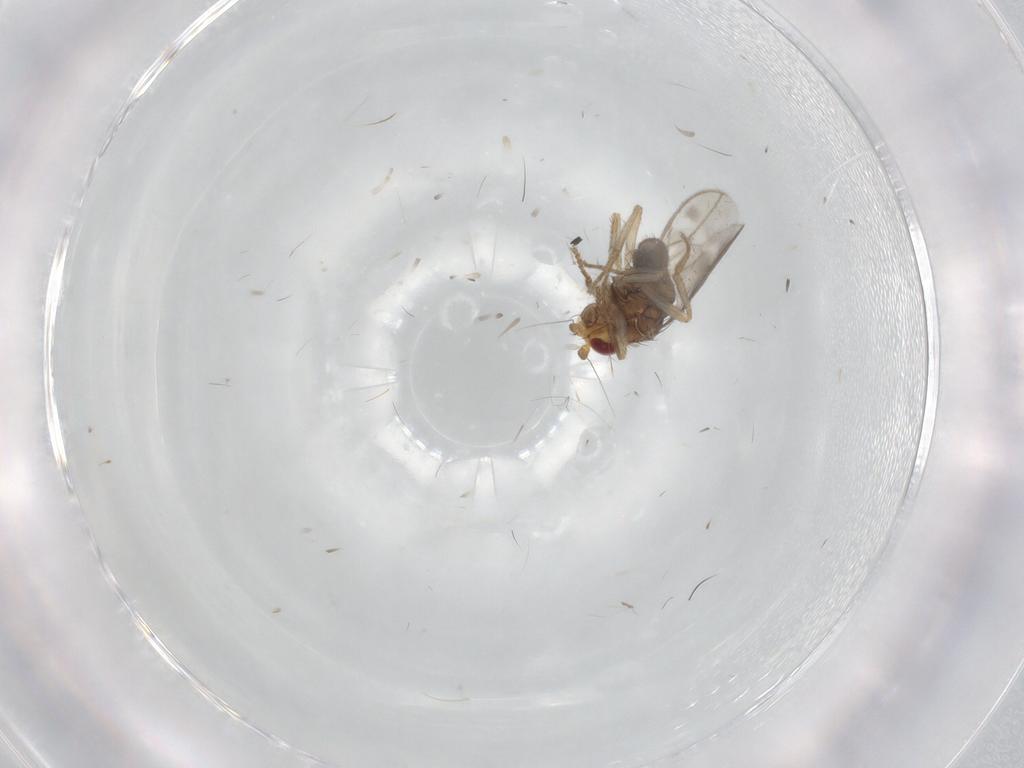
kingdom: Animalia
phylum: Arthropoda
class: Insecta
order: Diptera
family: Sphaeroceridae
